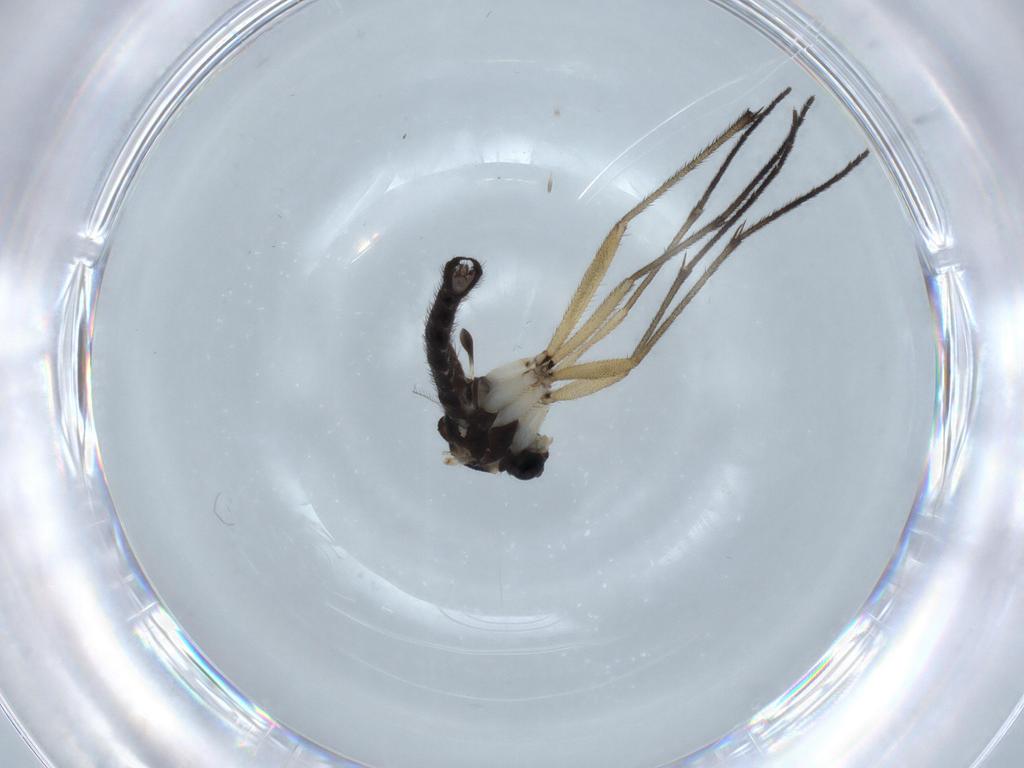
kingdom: Animalia
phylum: Arthropoda
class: Insecta
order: Diptera
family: Sciaridae
